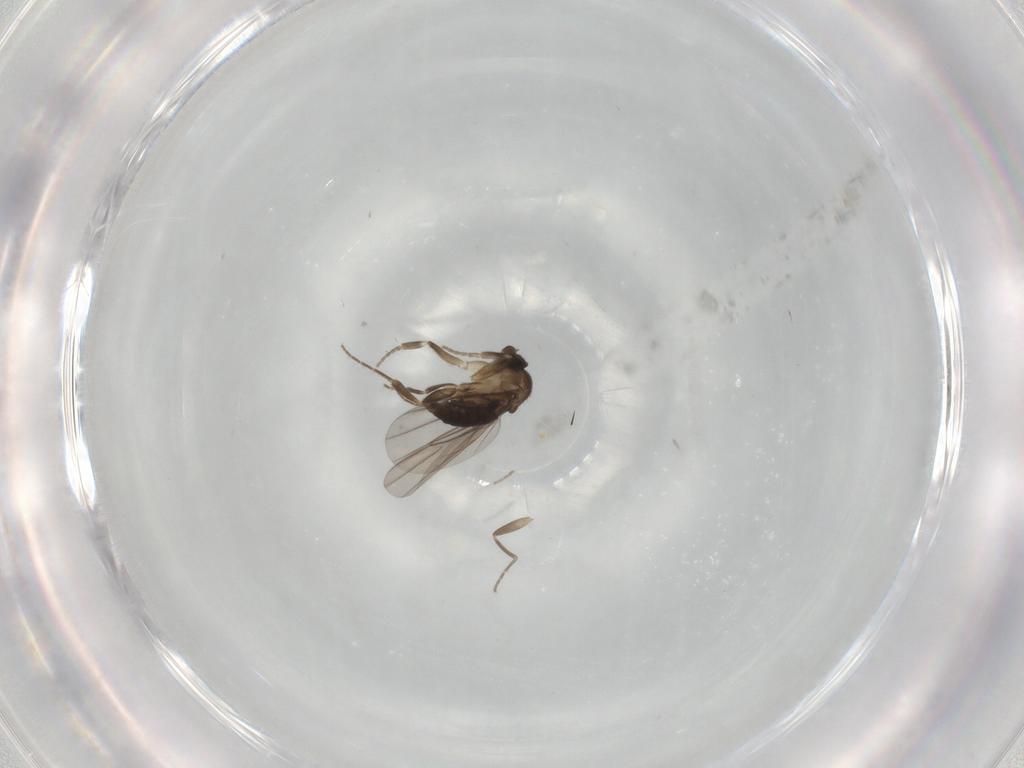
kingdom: Animalia
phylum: Arthropoda
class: Insecta
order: Diptera
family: Phoridae
